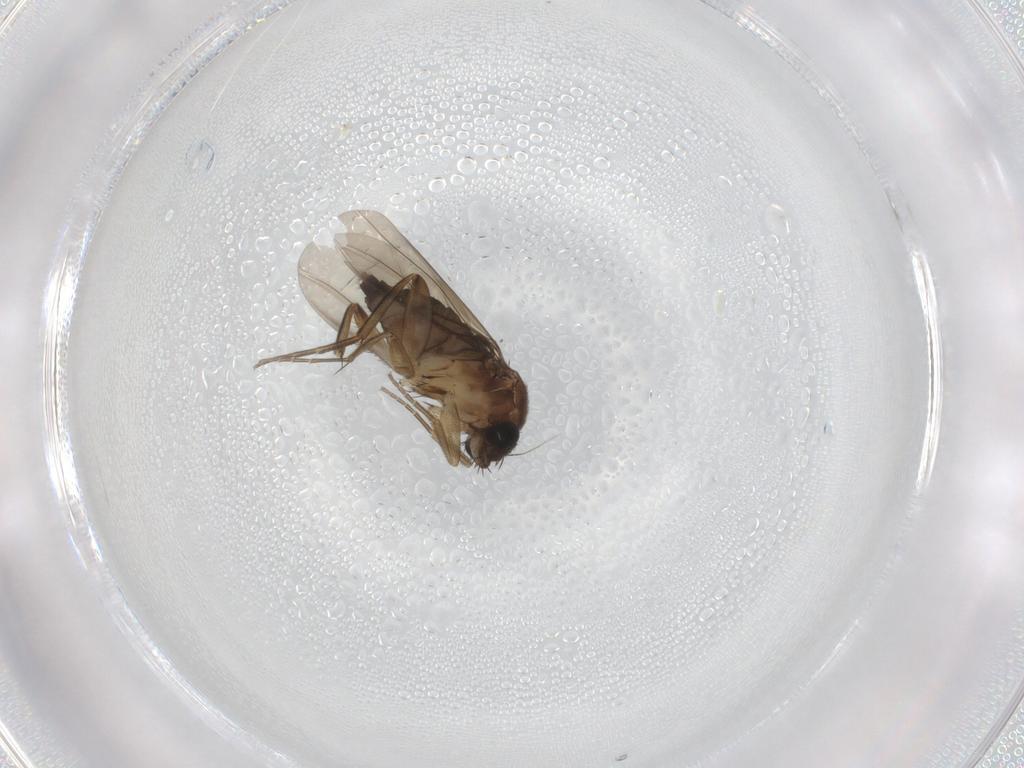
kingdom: Animalia
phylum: Arthropoda
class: Insecta
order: Diptera
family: Phoridae
